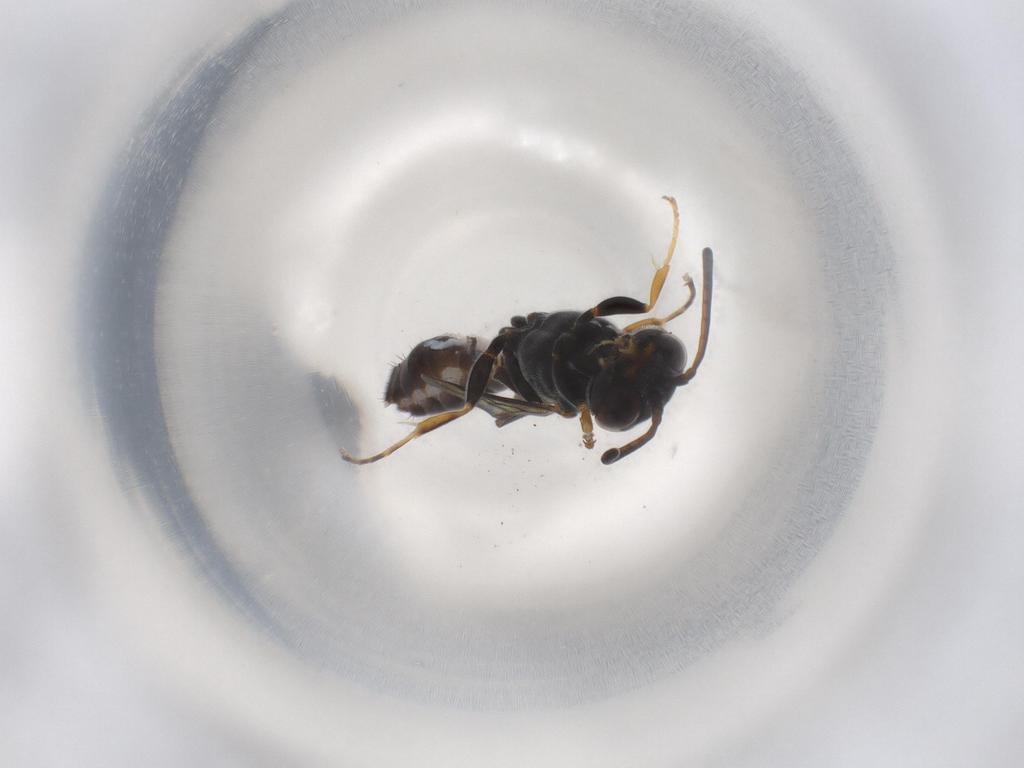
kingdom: Animalia
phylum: Arthropoda
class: Insecta
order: Hymenoptera
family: Crabronidae
